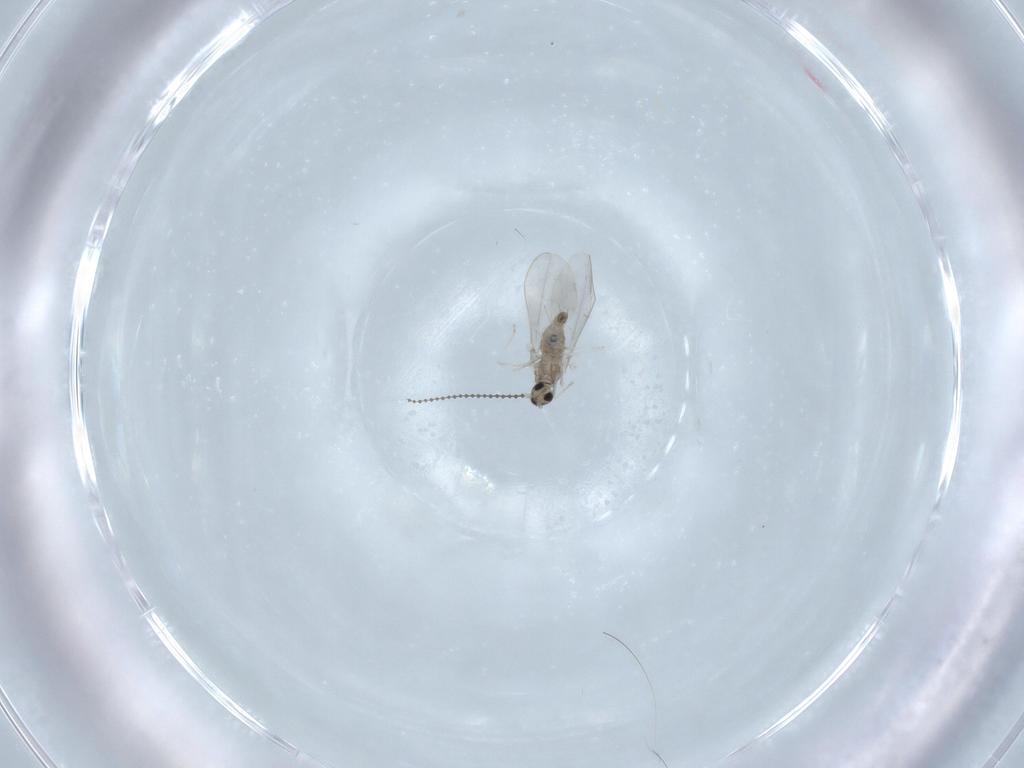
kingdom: Animalia
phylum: Arthropoda
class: Insecta
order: Diptera
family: Cecidomyiidae
